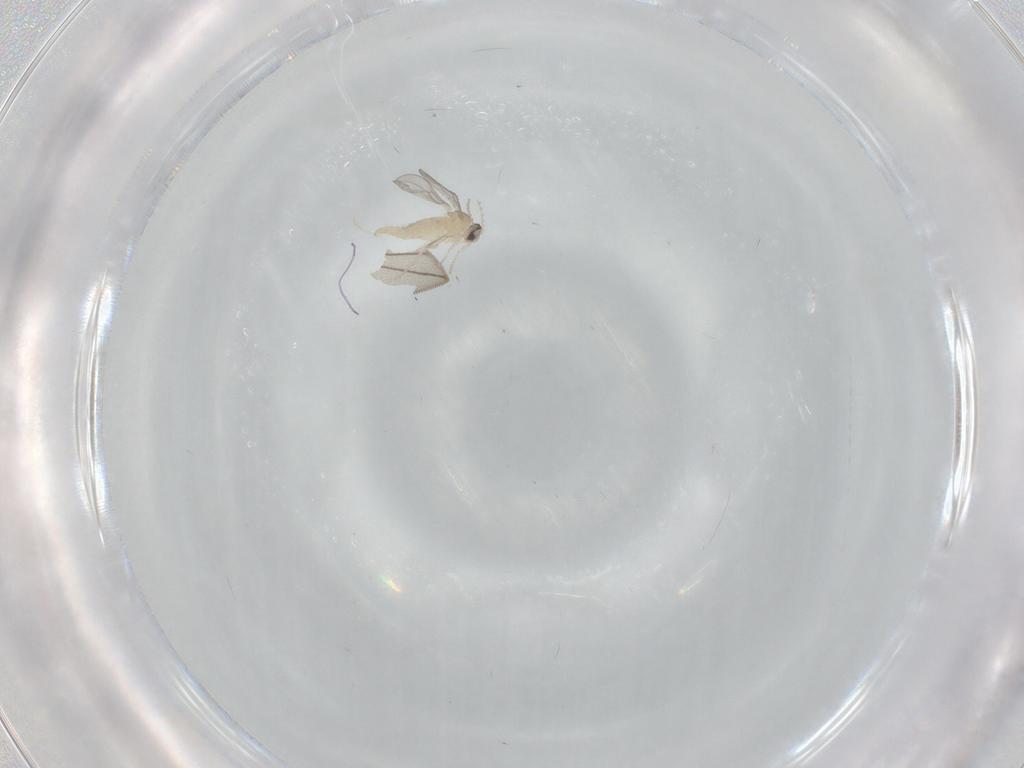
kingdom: Animalia
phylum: Arthropoda
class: Insecta
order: Diptera
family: Cecidomyiidae
